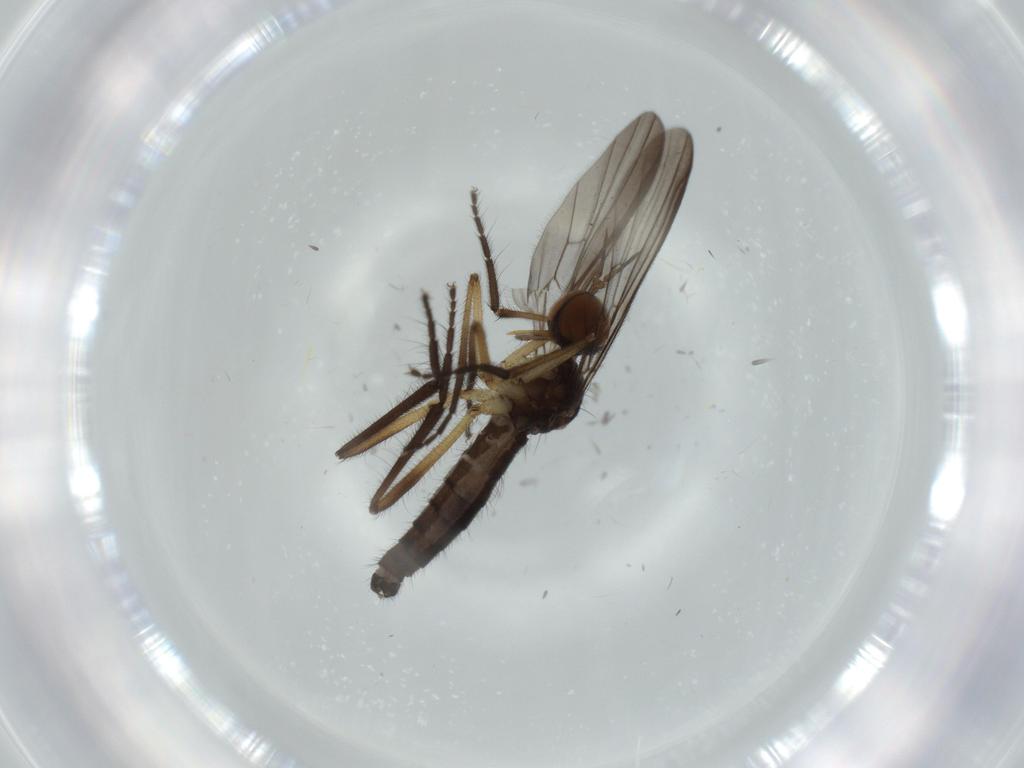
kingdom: Animalia
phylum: Arthropoda
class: Insecta
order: Diptera
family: Empididae
